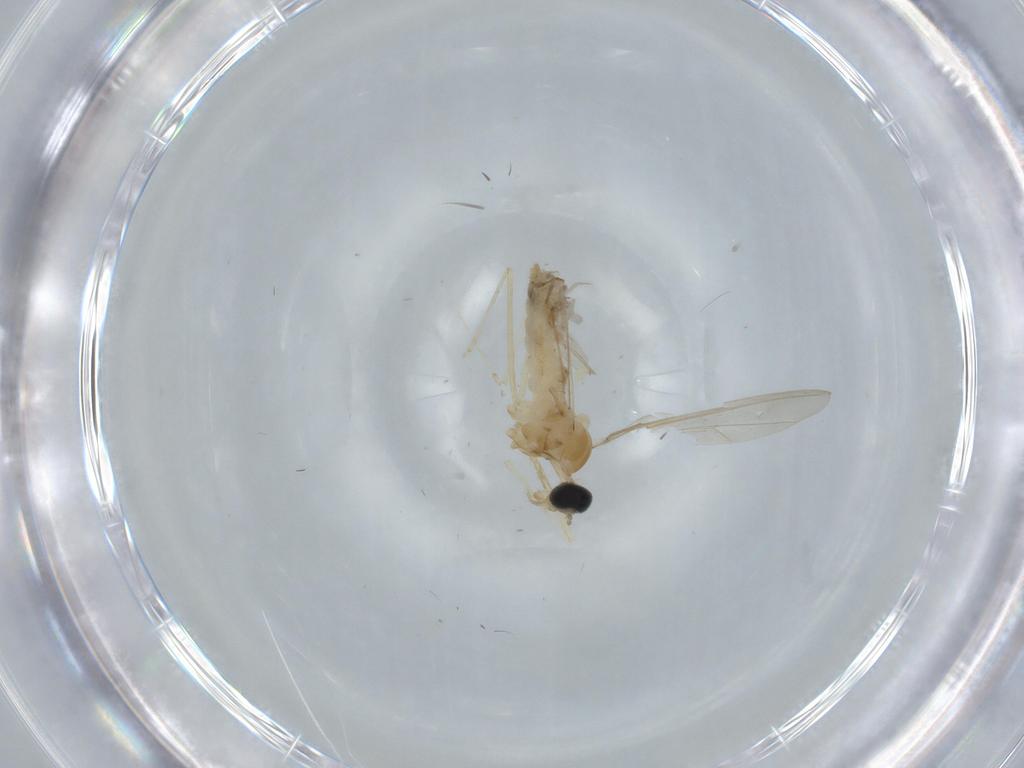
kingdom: Animalia
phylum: Arthropoda
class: Insecta
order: Diptera
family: Cecidomyiidae
